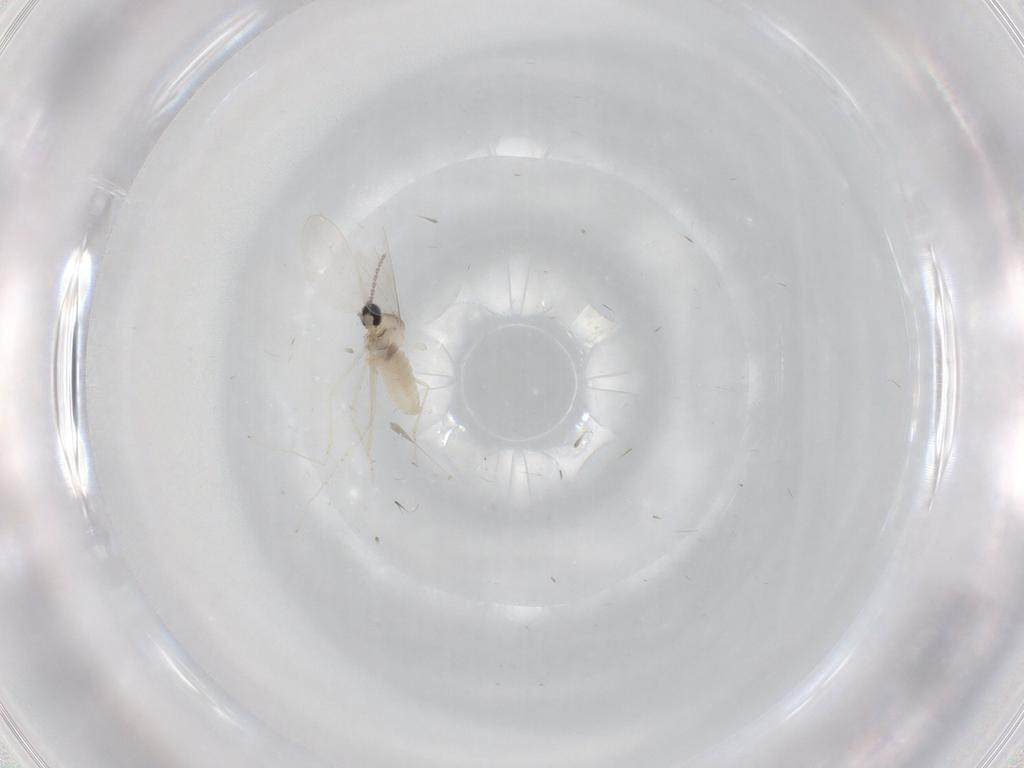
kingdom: Animalia
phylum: Arthropoda
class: Insecta
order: Diptera
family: Cecidomyiidae
